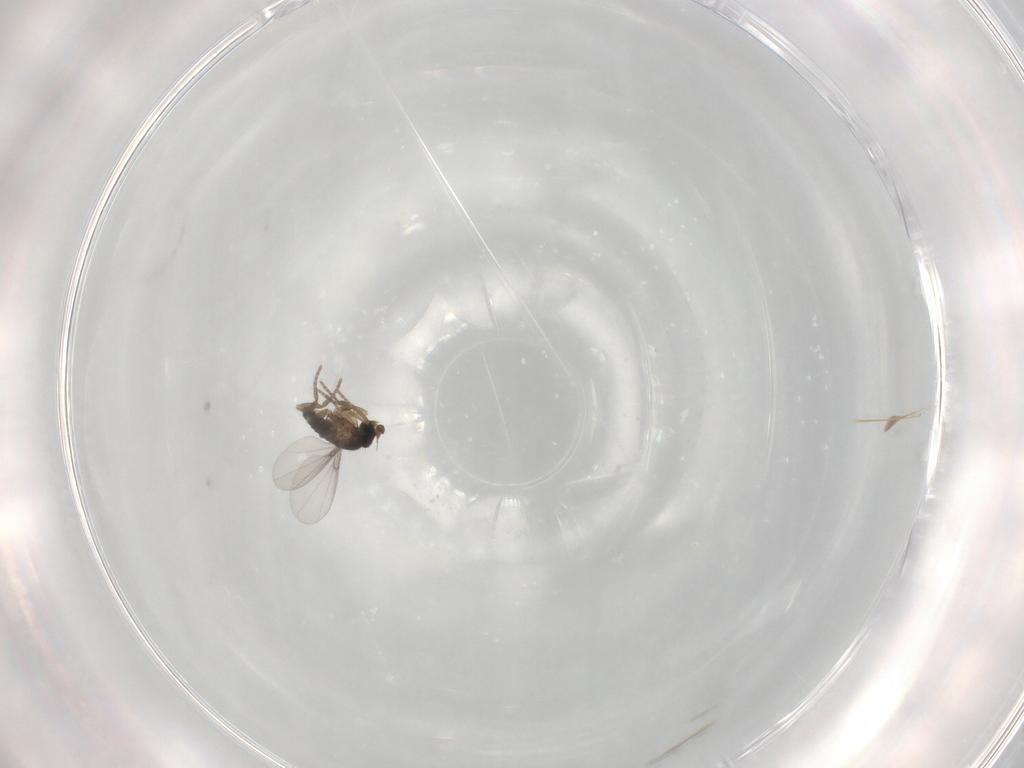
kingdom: Animalia
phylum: Arthropoda
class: Insecta
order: Diptera
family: Phoridae
